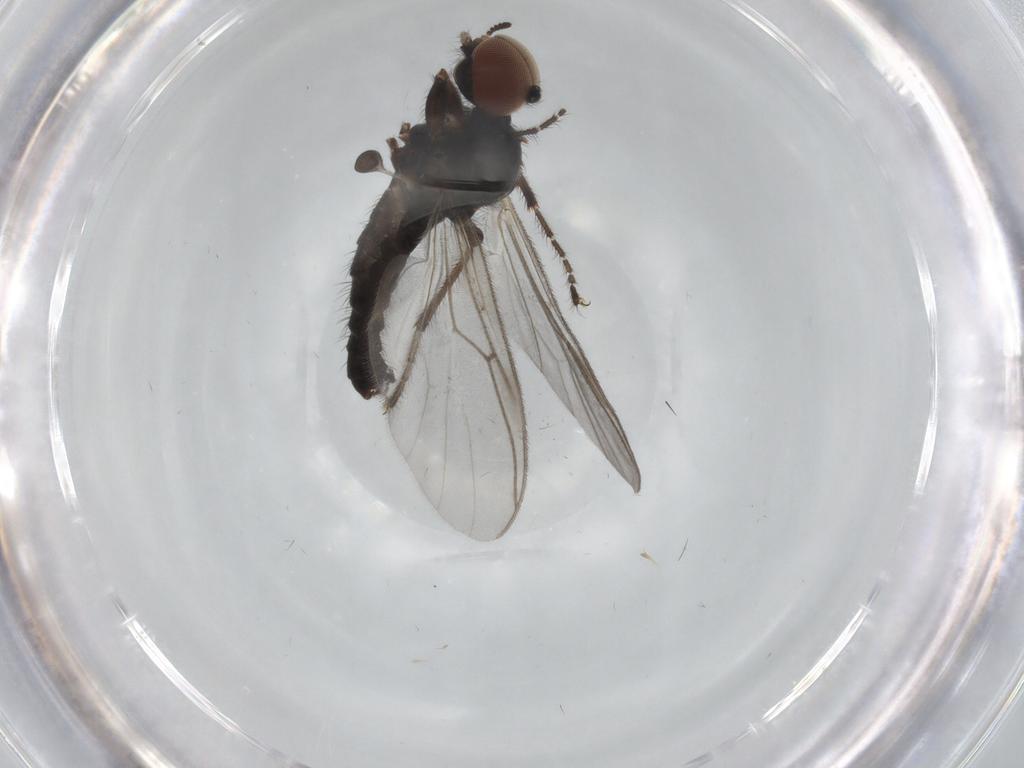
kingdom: Animalia
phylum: Arthropoda
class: Insecta
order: Diptera
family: Drosophilidae
